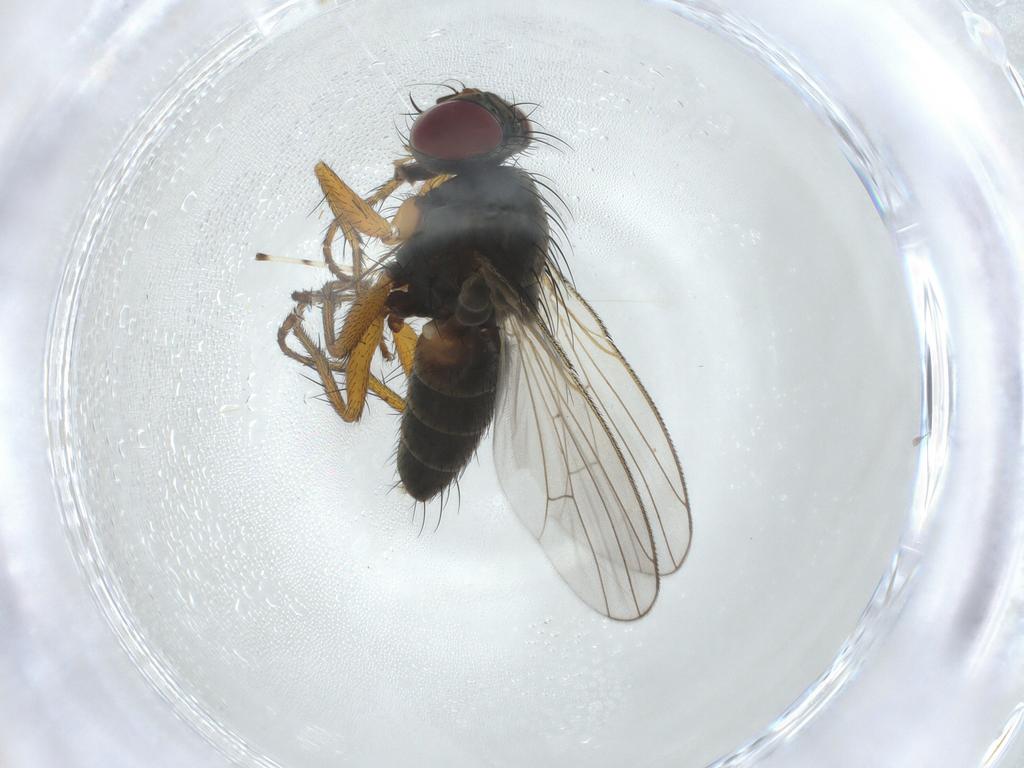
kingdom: Animalia
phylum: Arthropoda
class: Insecta
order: Diptera
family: Muscidae
